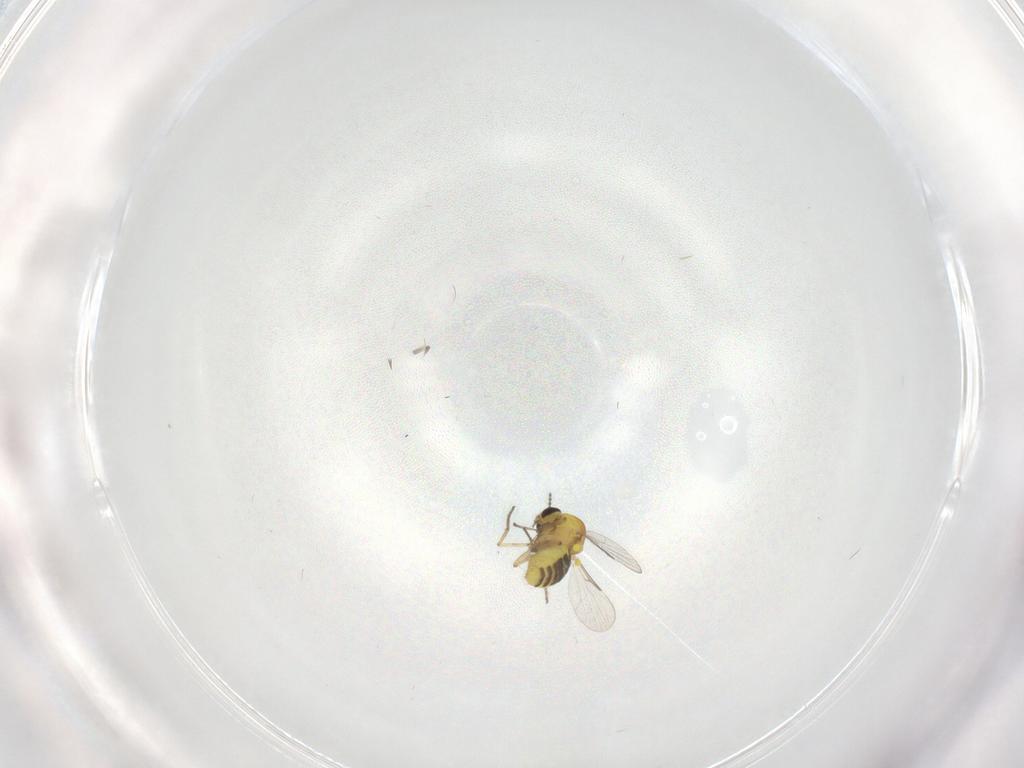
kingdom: Animalia
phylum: Arthropoda
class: Insecta
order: Diptera
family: Cecidomyiidae
